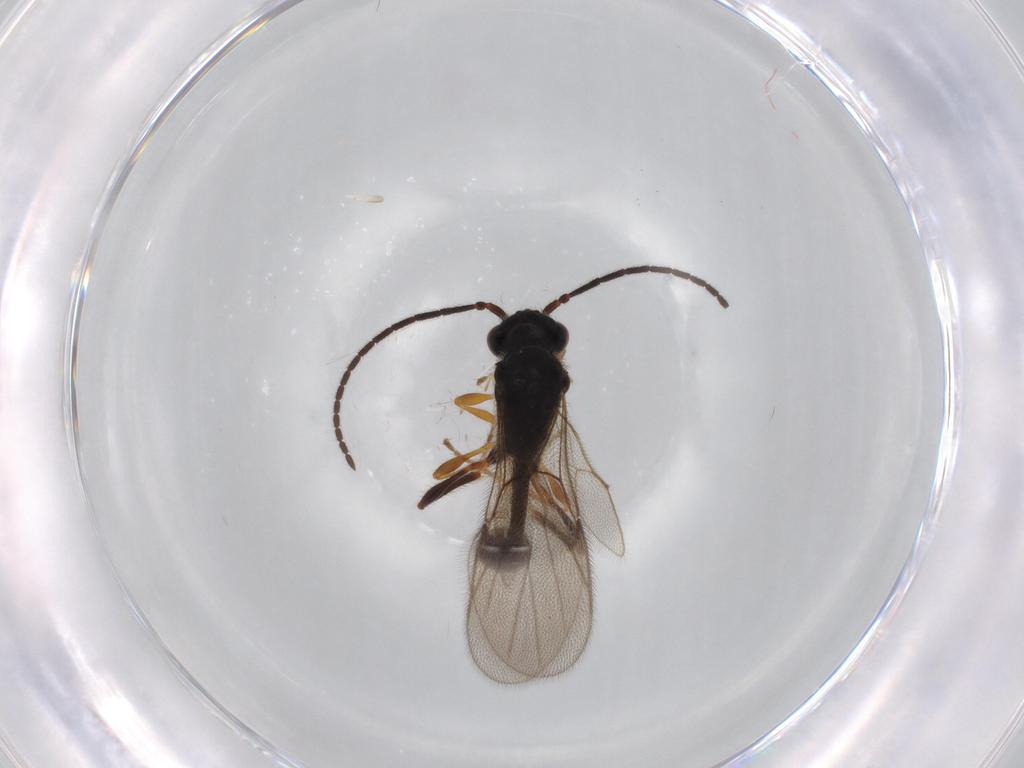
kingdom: Animalia
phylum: Arthropoda
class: Insecta
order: Hymenoptera
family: Diapriidae
